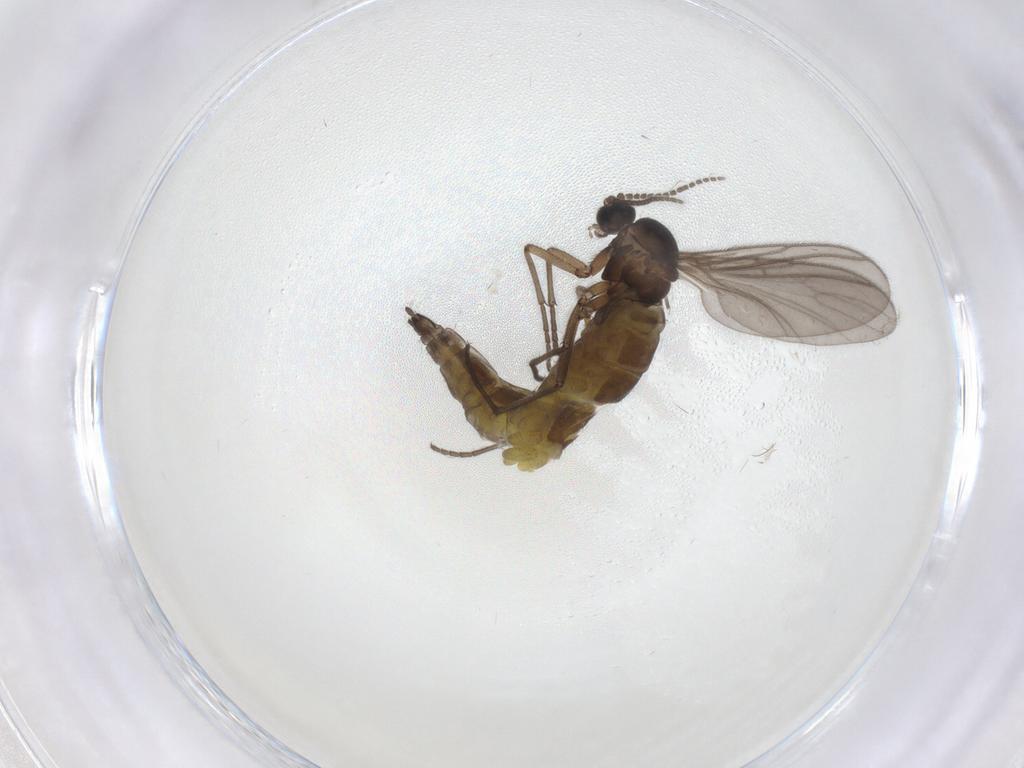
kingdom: Animalia
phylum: Arthropoda
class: Insecta
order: Diptera
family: Sciaridae
